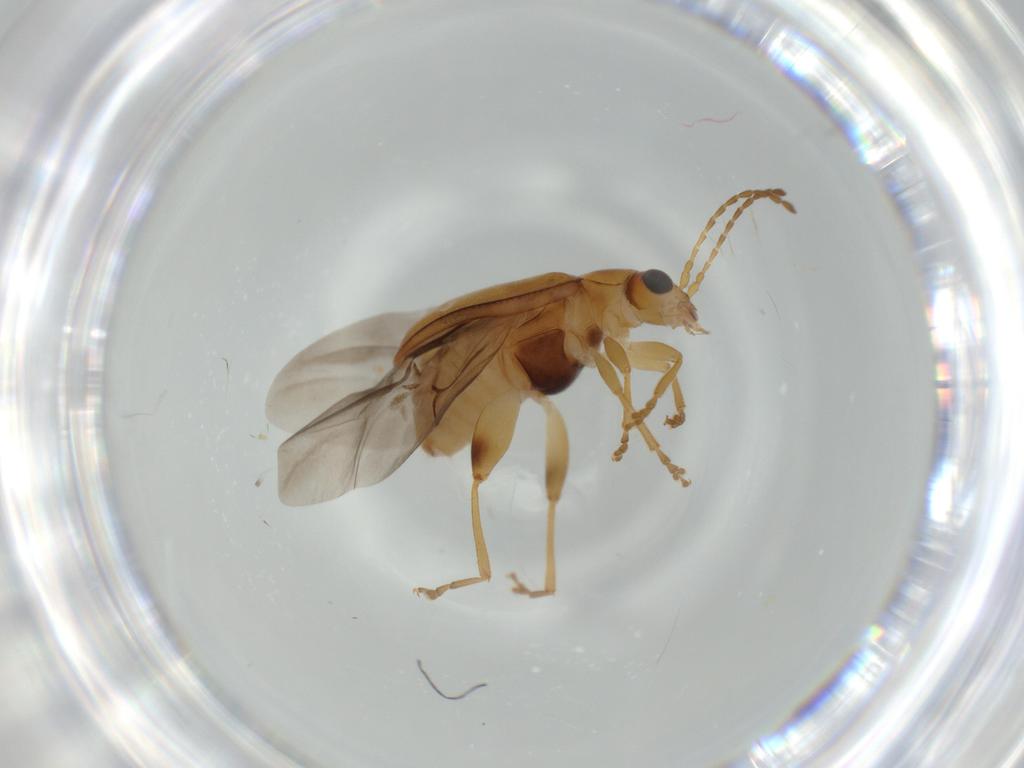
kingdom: Animalia
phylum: Arthropoda
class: Insecta
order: Coleoptera
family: Chrysomelidae
